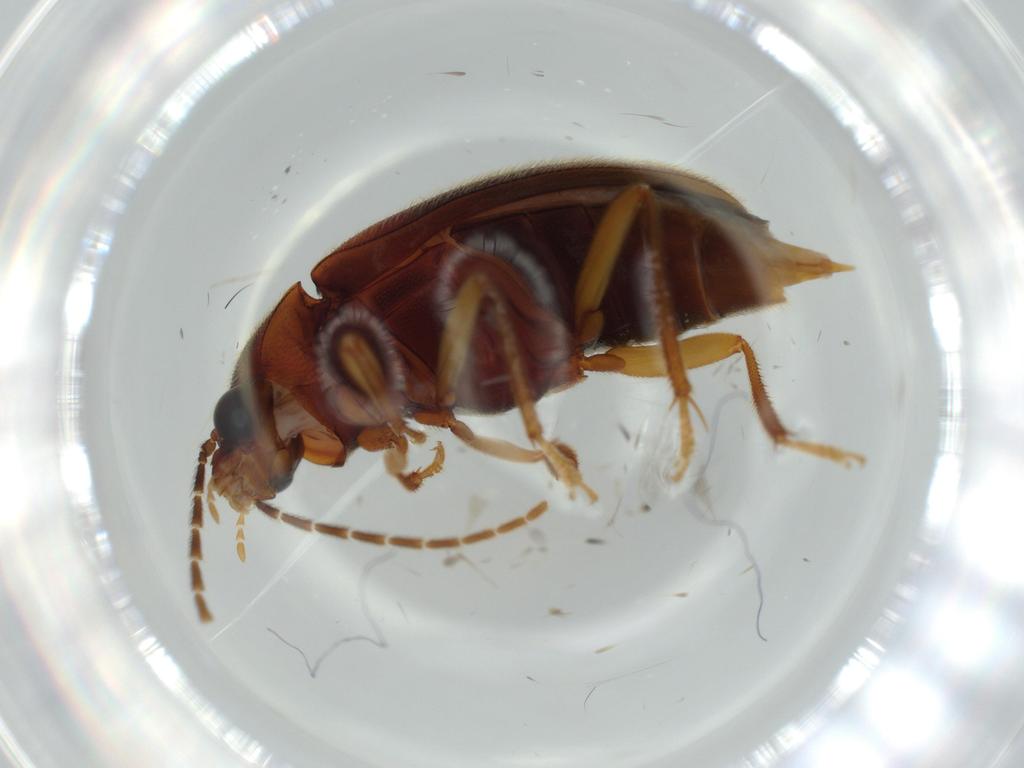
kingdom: Animalia
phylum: Arthropoda
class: Insecta
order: Coleoptera
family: Ptilodactylidae
